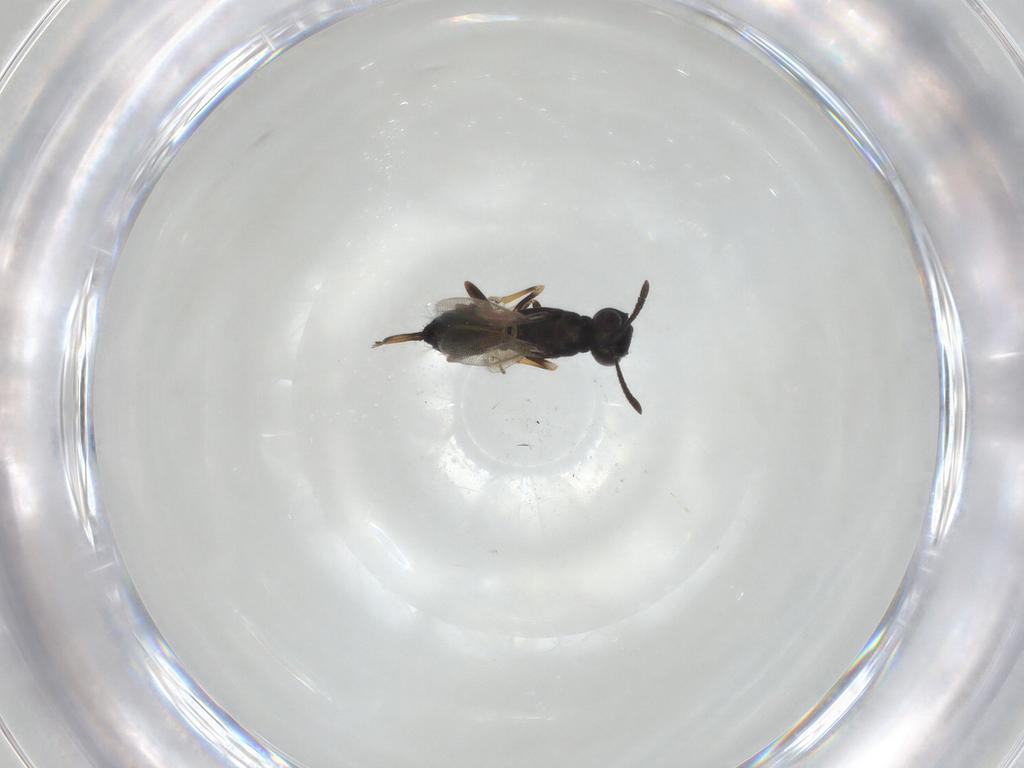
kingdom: Animalia
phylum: Arthropoda
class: Insecta
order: Hymenoptera
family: Eupelmidae
